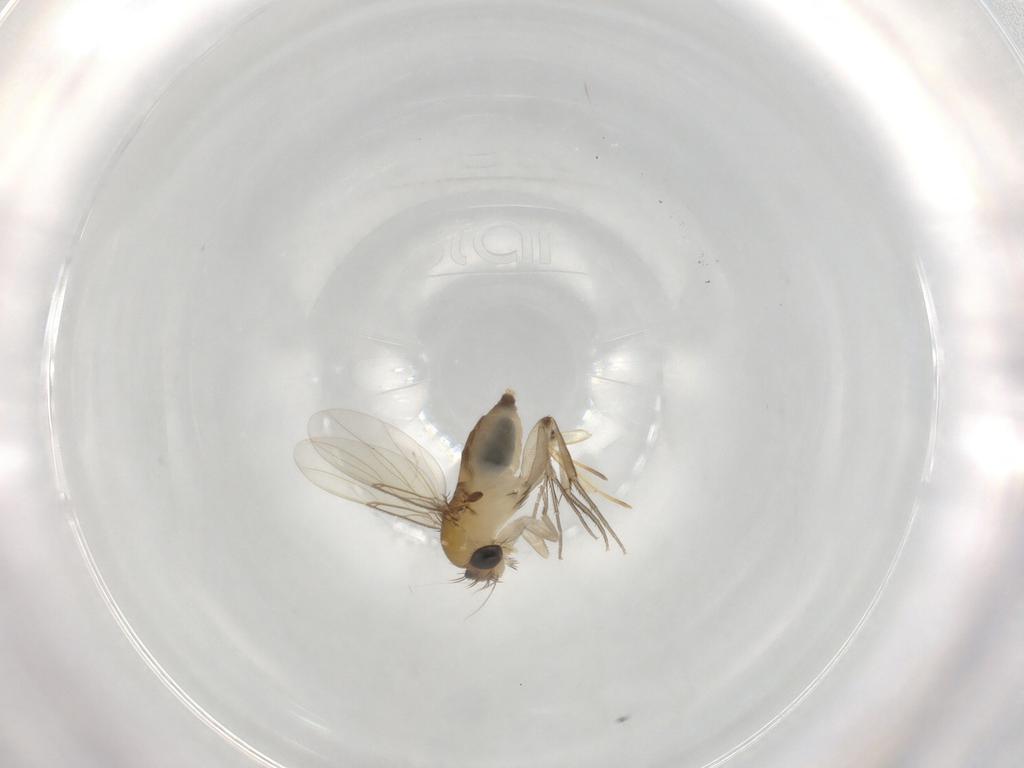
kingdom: Animalia
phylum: Arthropoda
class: Insecta
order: Diptera
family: Phoridae
